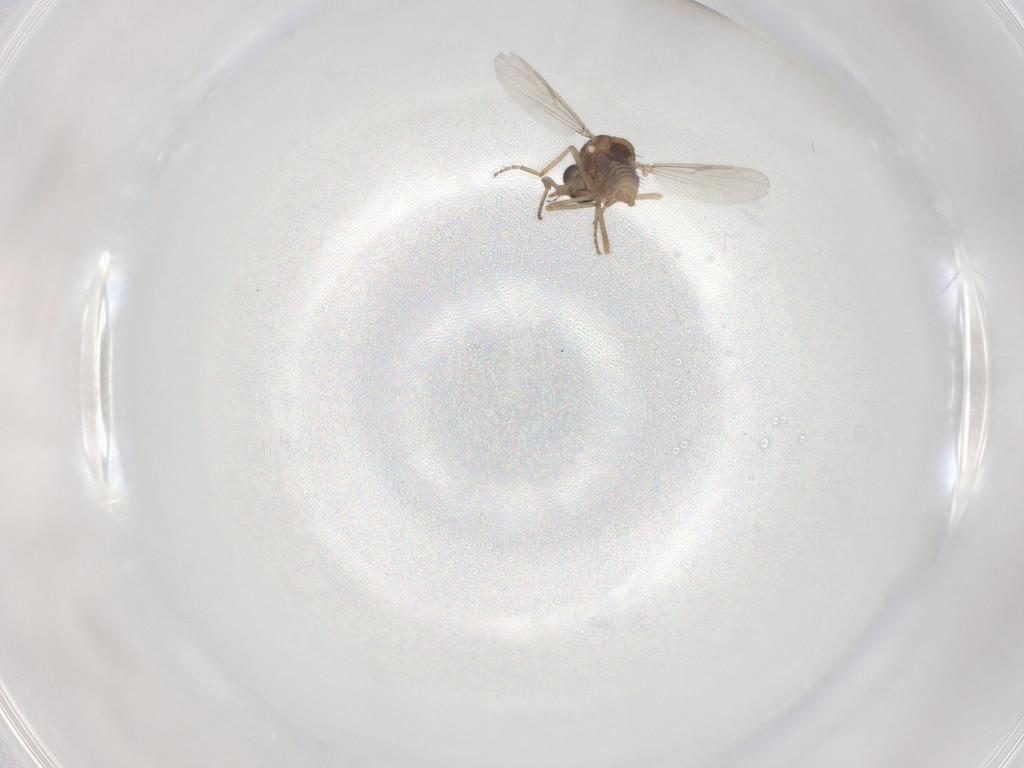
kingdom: Animalia
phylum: Arthropoda
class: Insecta
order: Diptera
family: Ceratopogonidae
